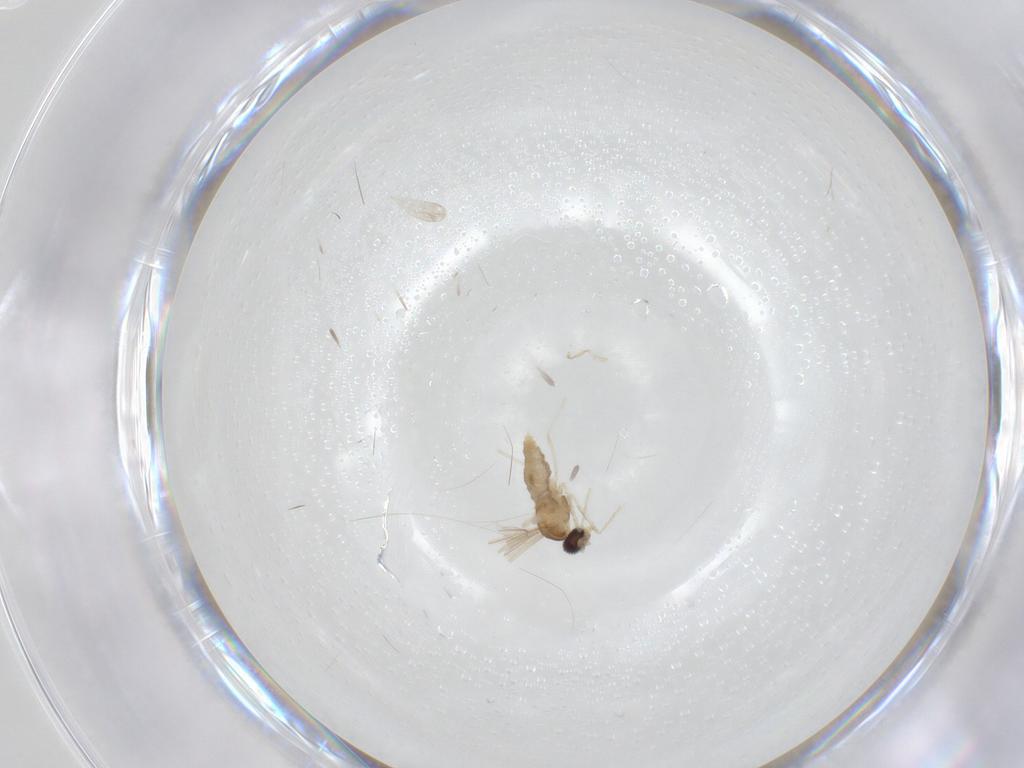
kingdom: Animalia
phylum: Arthropoda
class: Insecta
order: Diptera
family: Cecidomyiidae
